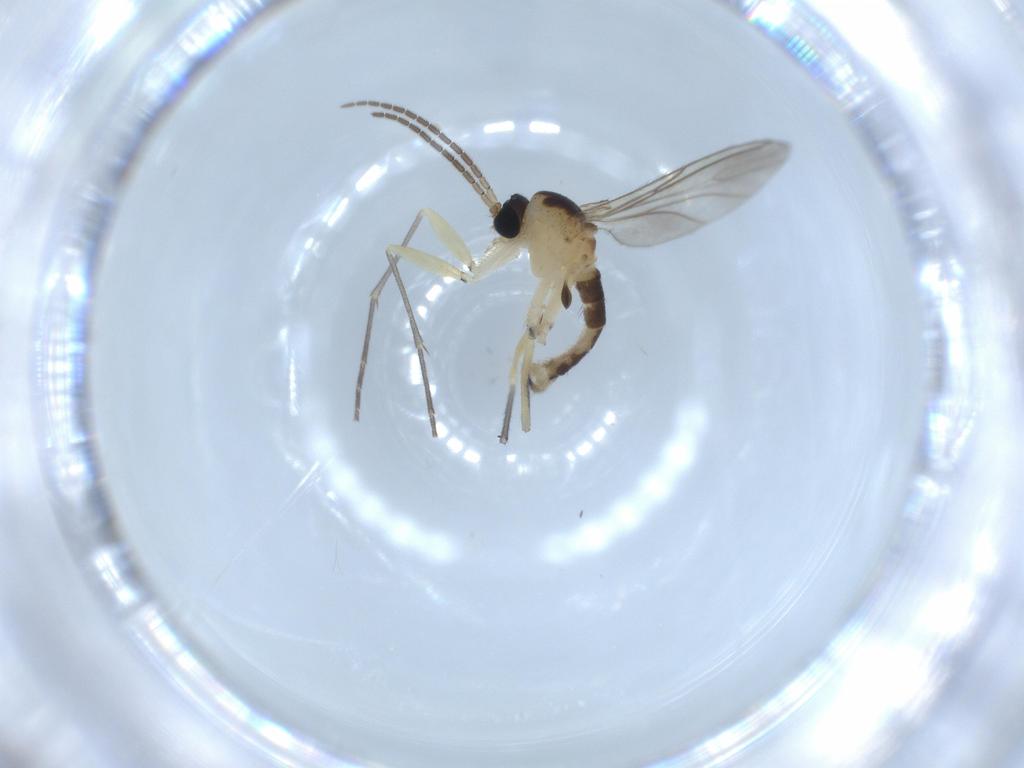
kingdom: Animalia
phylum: Arthropoda
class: Insecta
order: Diptera
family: Sciaridae
